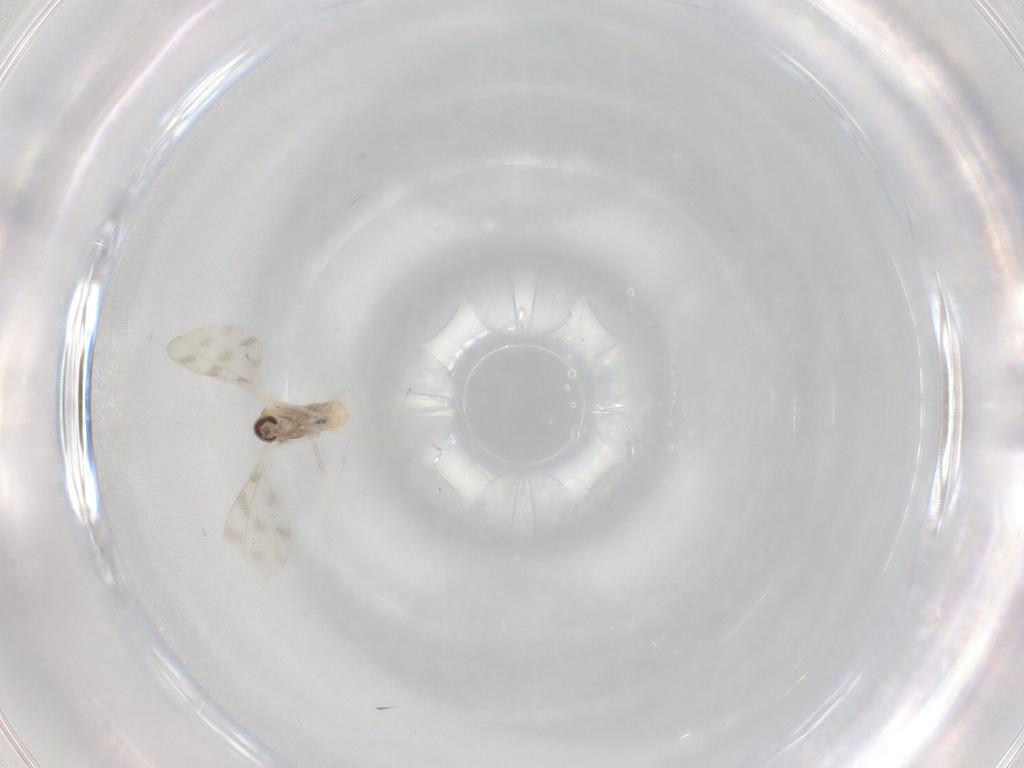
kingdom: Animalia
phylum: Arthropoda
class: Insecta
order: Diptera
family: Cecidomyiidae
